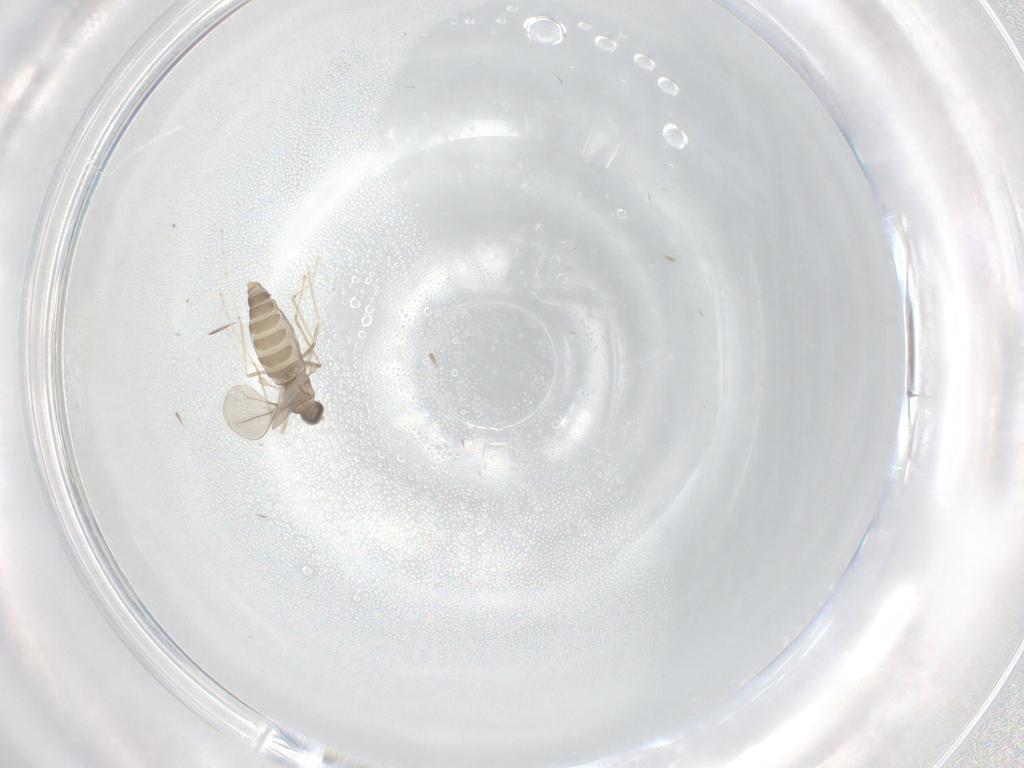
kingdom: Animalia
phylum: Arthropoda
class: Insecta
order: Diptera
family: Cecidomyiidae
